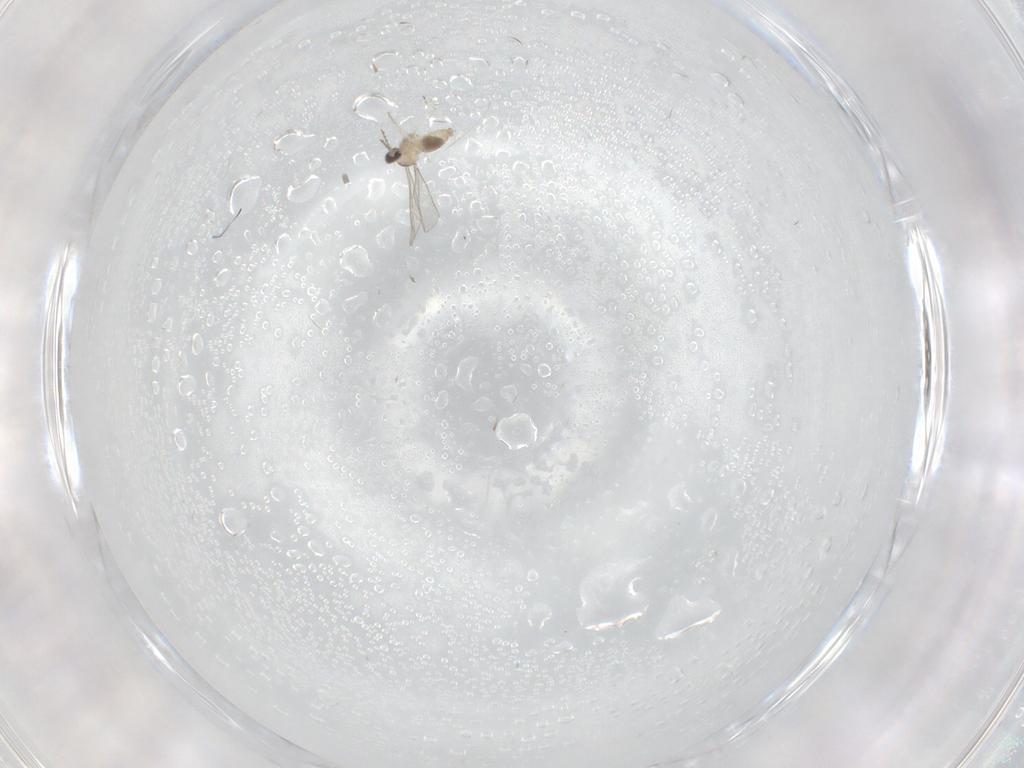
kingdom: Animalia
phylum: Arthropoda
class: Insecta
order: Diptera
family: Cecidomyiidae
